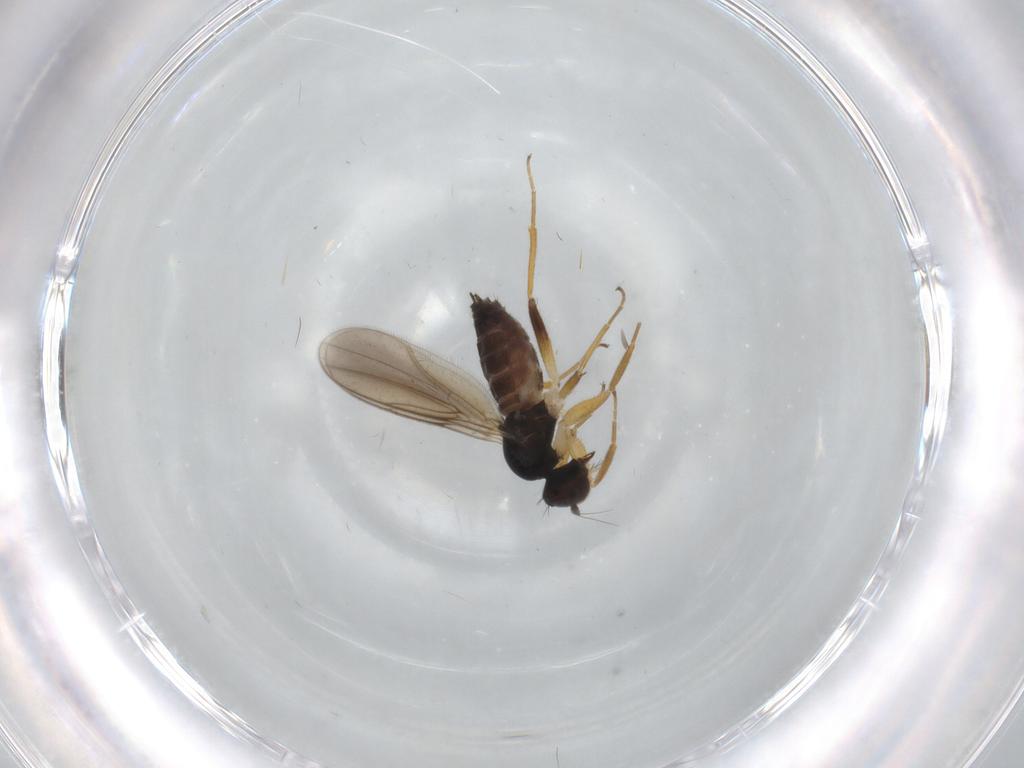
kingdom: Animalia
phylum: Arthropoda
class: Insecta
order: Diptera
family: Hybotidae
